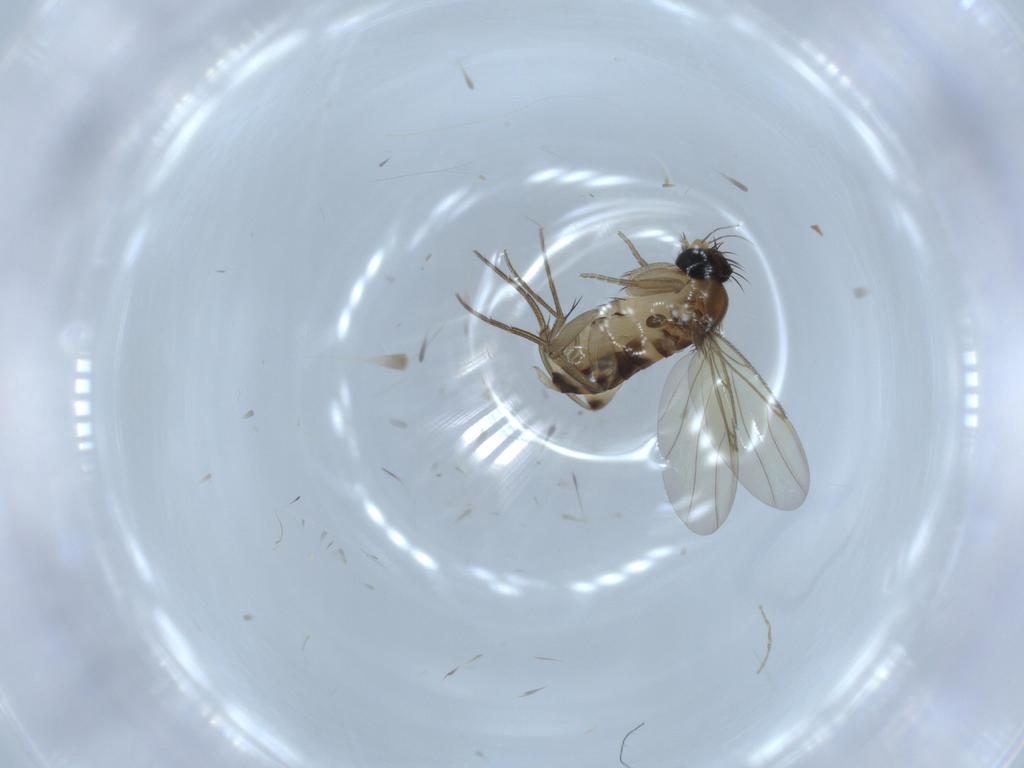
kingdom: Animalia
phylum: Arthropoda
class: Insecta
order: Diptera
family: Phoridae
